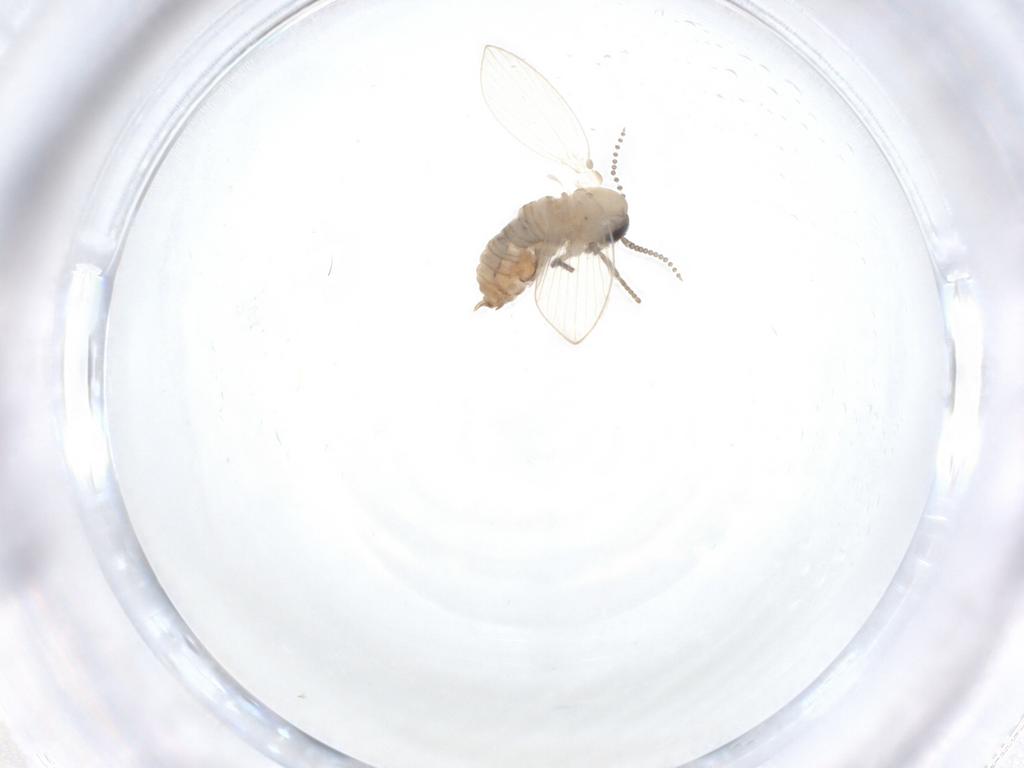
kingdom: Animalia
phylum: Arthropoda
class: Insecta
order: Diptera
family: Psychodidae
